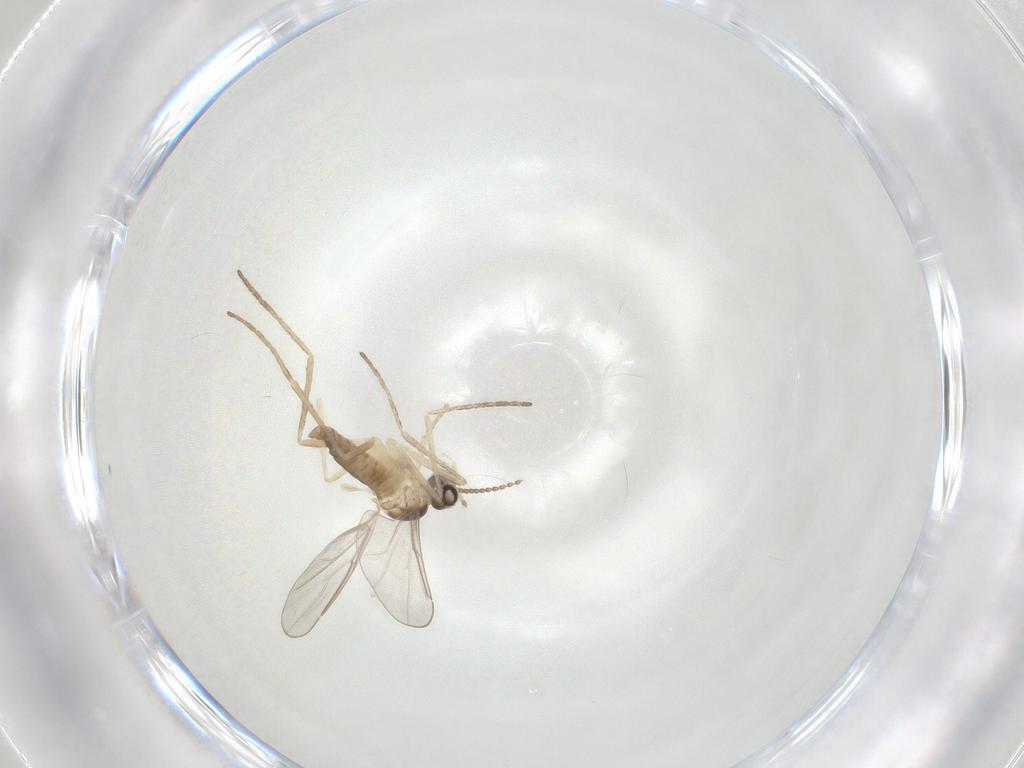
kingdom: Animalia
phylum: Arthropoda
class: Insecta
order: Diptera
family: Cecidomyiidae
